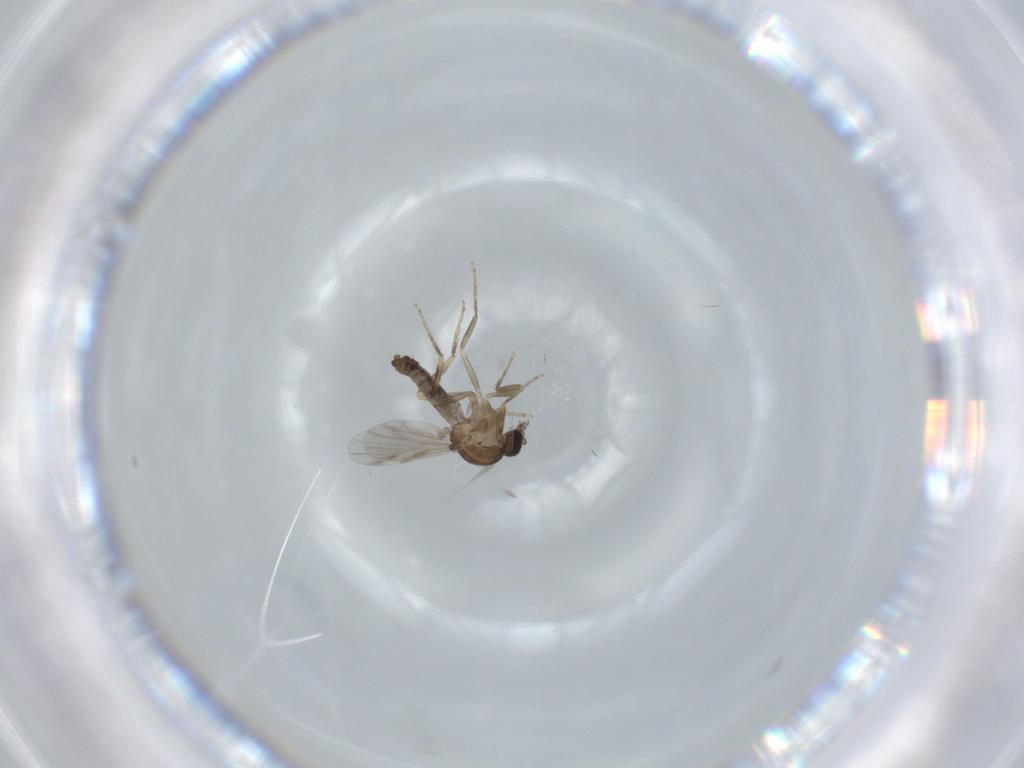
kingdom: Animalia
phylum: Arthropoda
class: Insecta
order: Diptera
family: Ceratopogonidae
